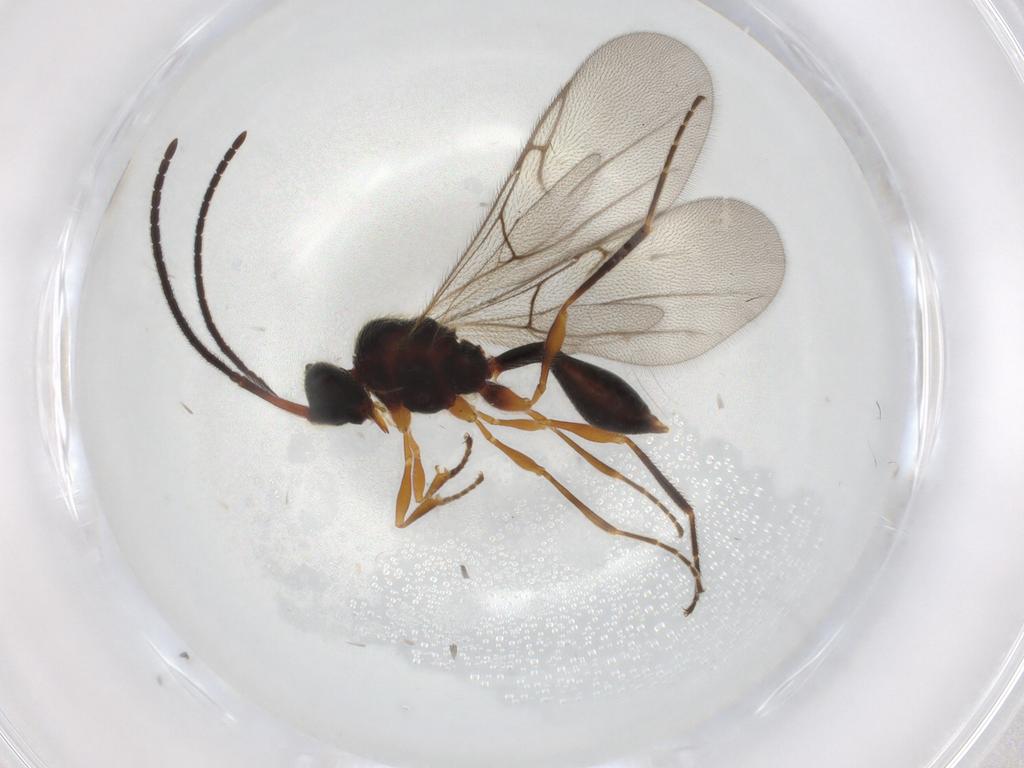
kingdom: Animalia
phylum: Arthropoda
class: Insecta
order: Hymenoptera
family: Diapriidae
